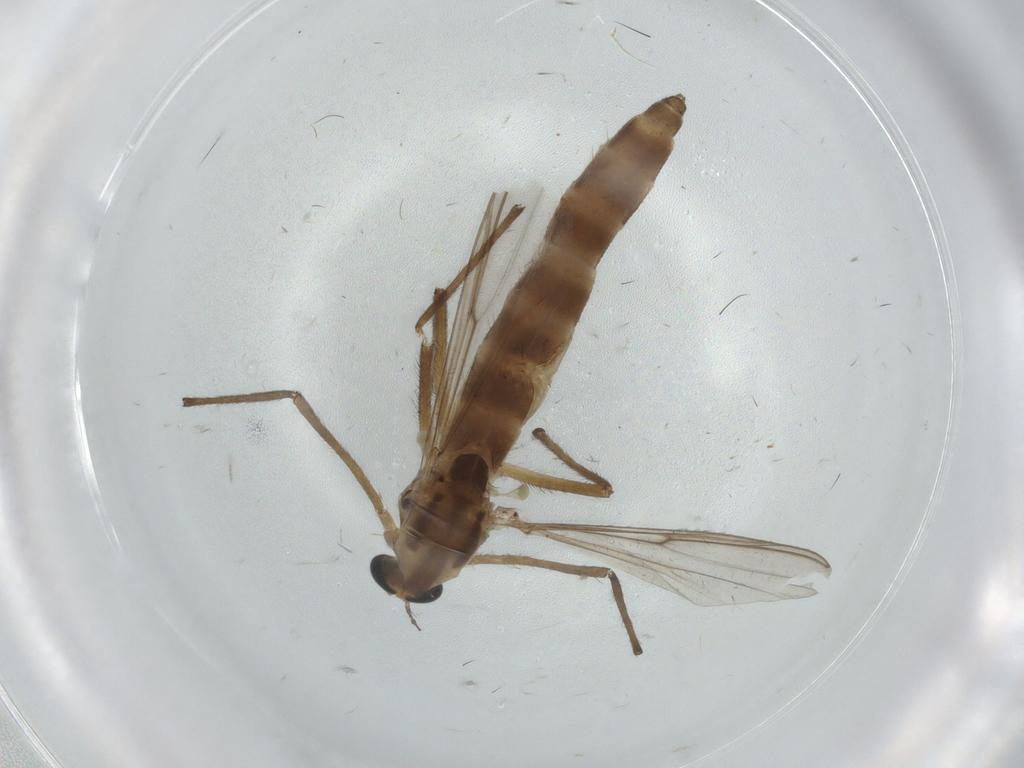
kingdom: Animalia
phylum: Arthropoda
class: Insecta
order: Diptera
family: Chironomidae
